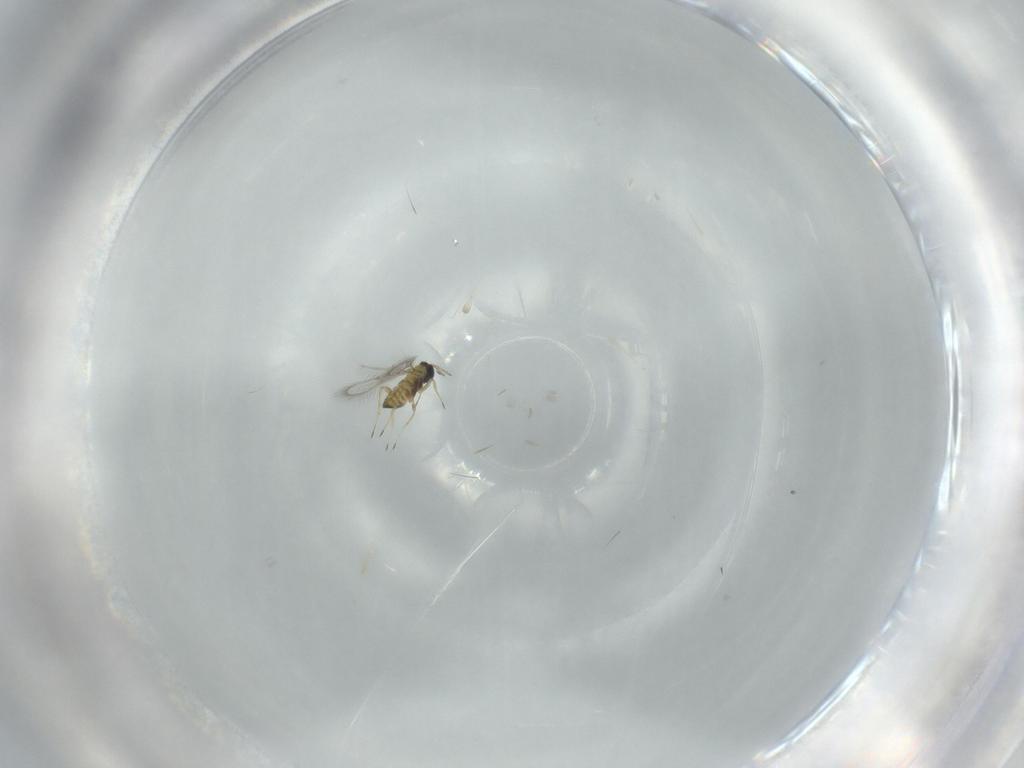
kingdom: Animalia
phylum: Arthropoda
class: Insecta
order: Hymenoptera
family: Trichogrammatidae
